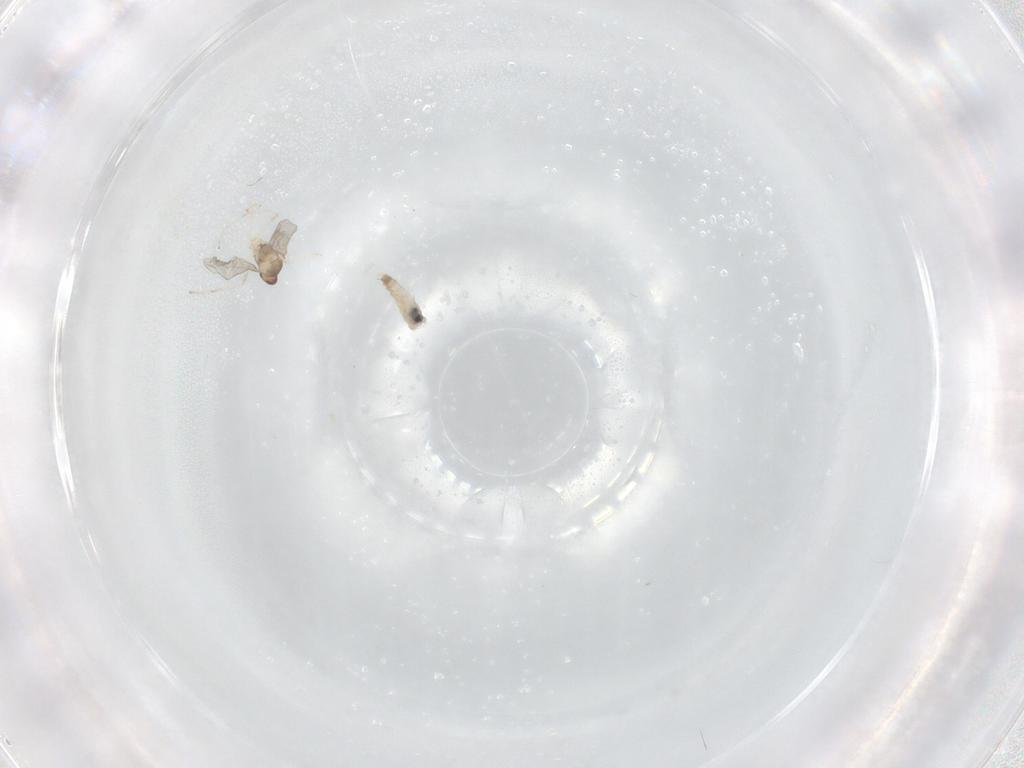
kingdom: Animalia
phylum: Arthropoda
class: Insecta
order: Diptera
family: Cecidomyiidae
